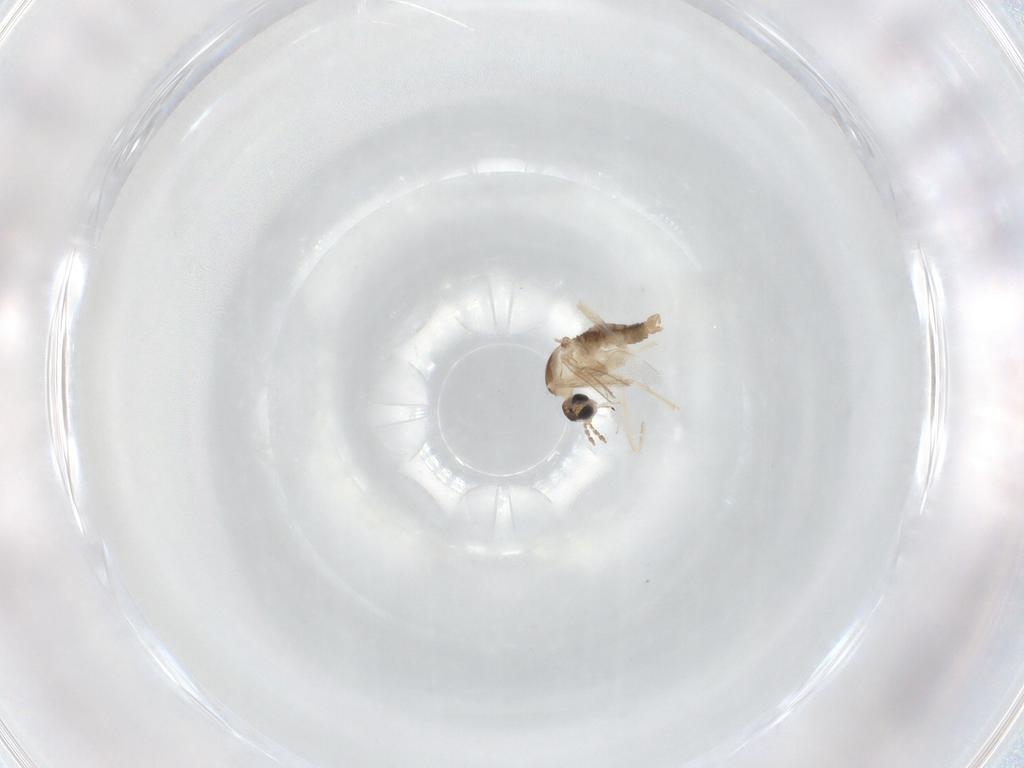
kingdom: Animalia
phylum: Arthropoda
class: Insecta
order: Diptera
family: Cecidomyiidae
